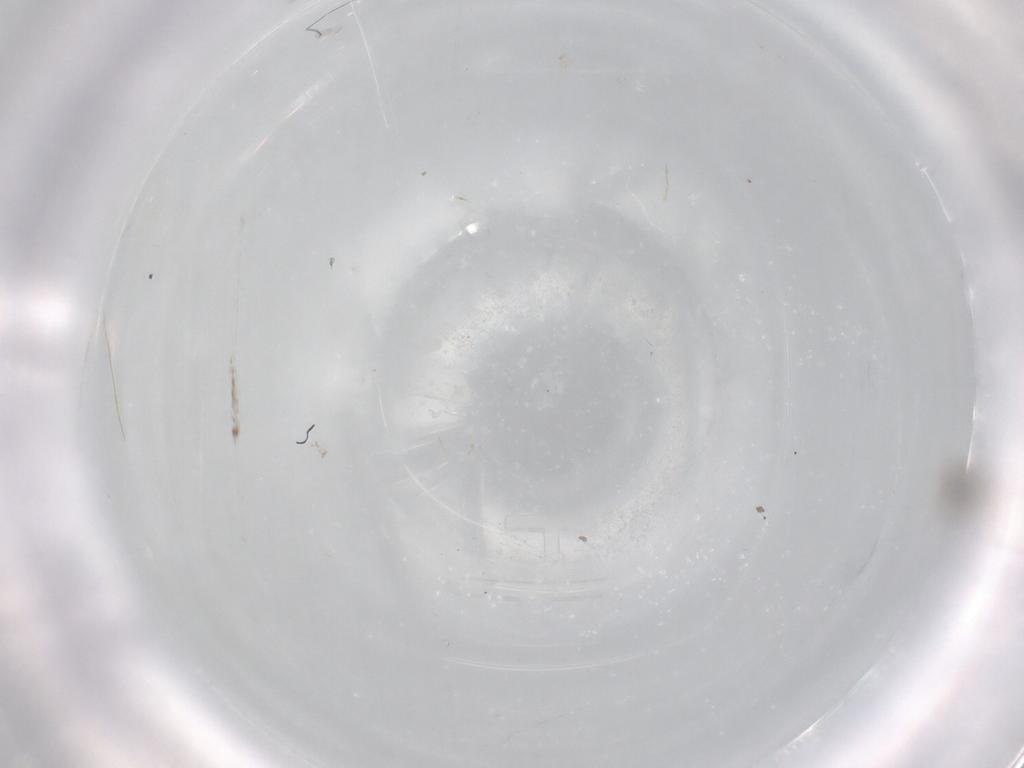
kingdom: Animalia
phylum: Arthropoda
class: Insecta
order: Diptera
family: Cecidomyiidae
